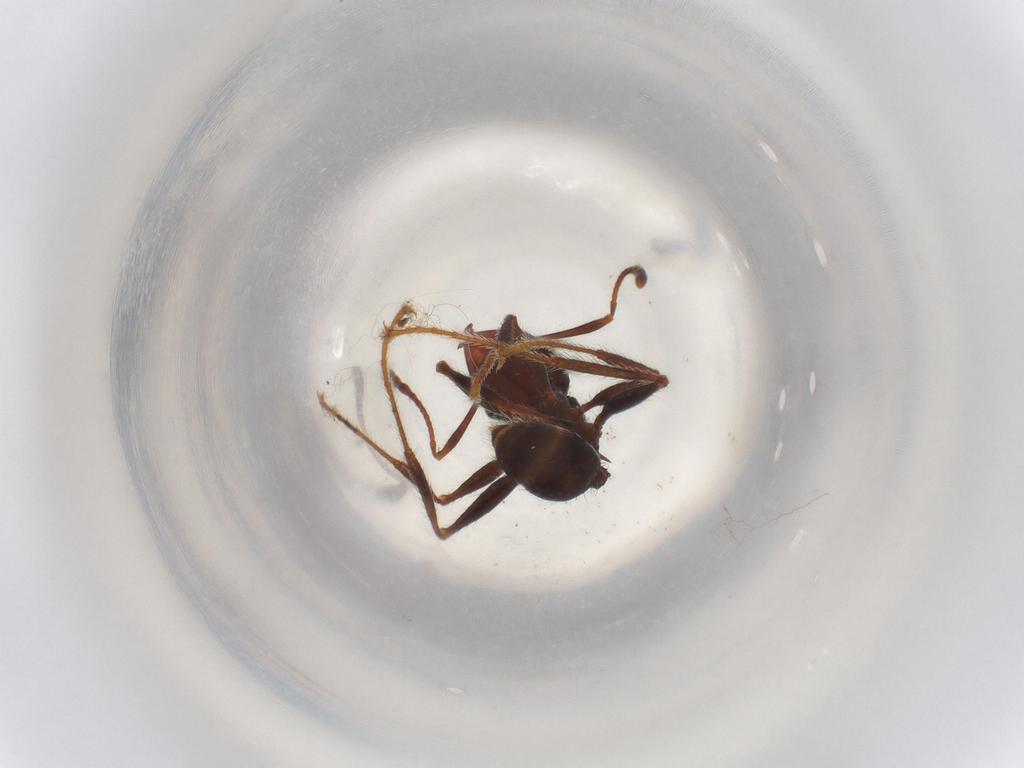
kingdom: Animalia
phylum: Arthropoda
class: Insecta
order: Hymenoptera
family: Formicidae
